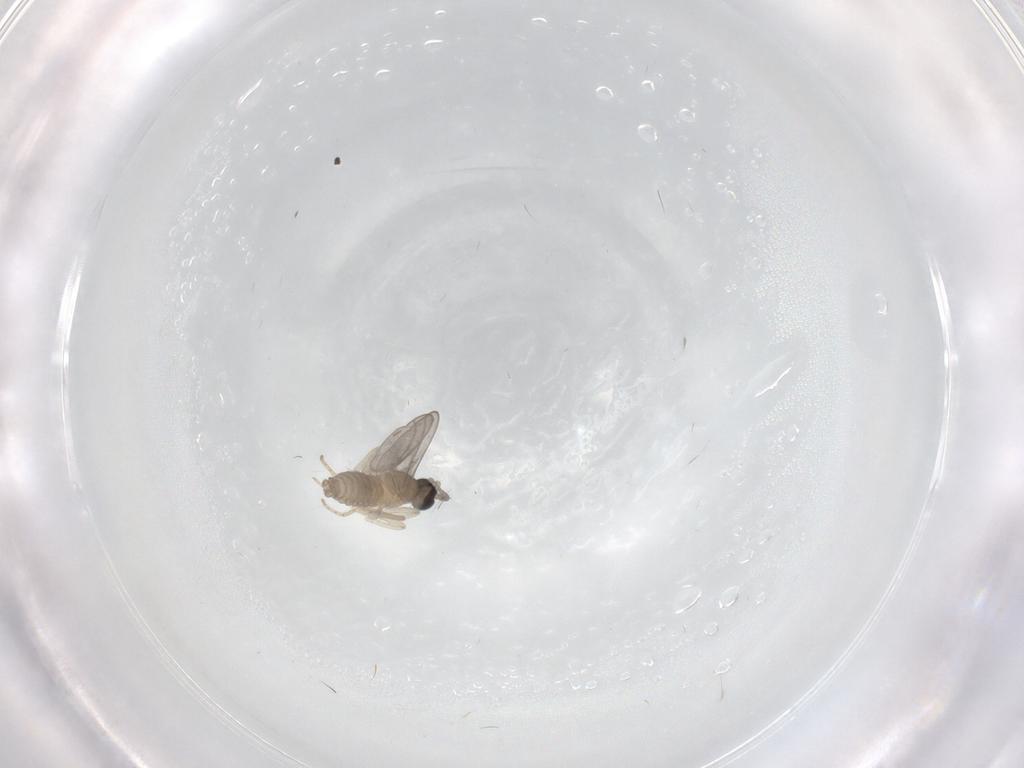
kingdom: Animalia
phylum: Arthropoda
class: Insecta
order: Diptera
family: Cecidomyiidae
